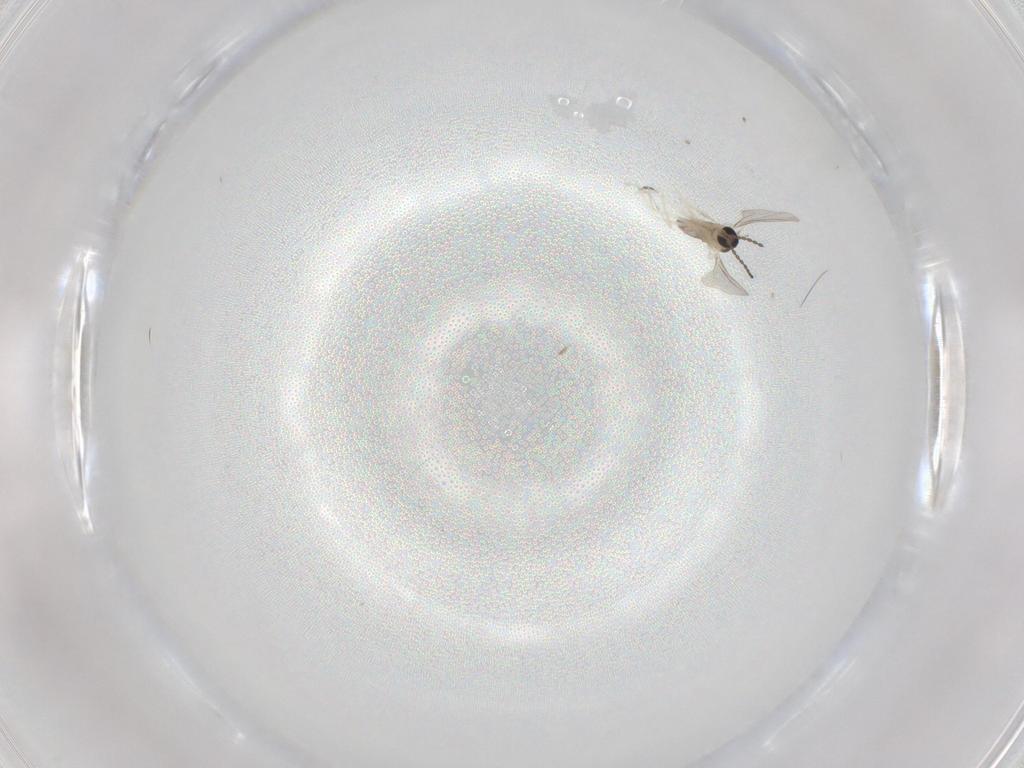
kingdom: Animalia
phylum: Arthropoda
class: Insecta
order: Diptera
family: Cecidomyiidae
